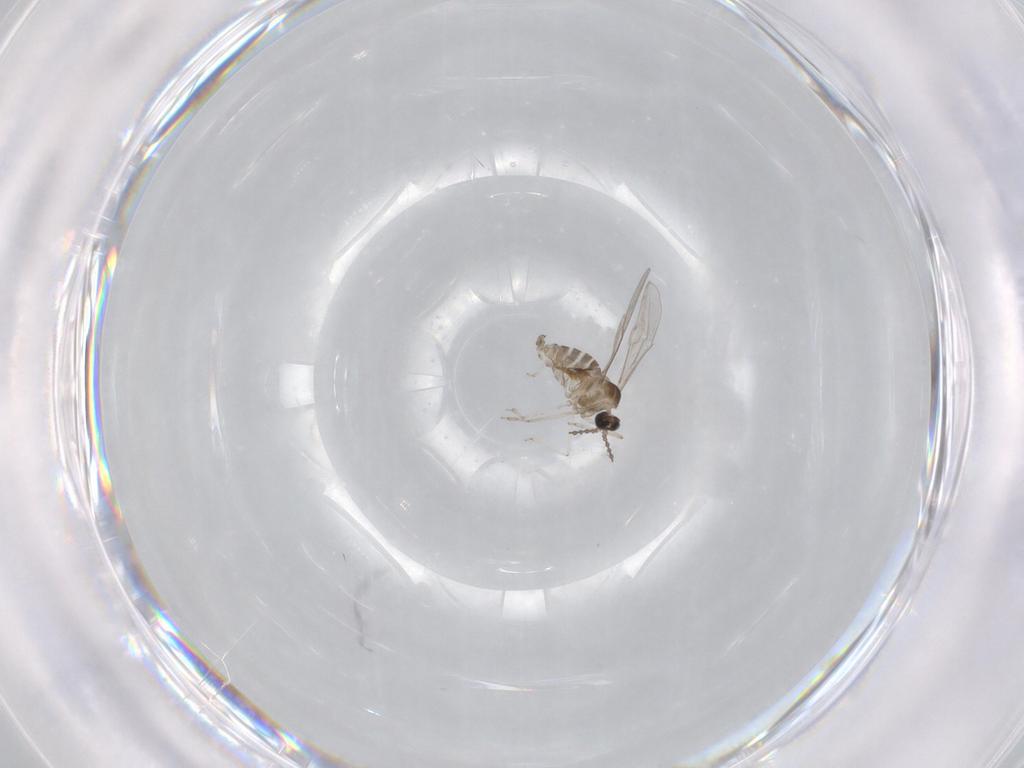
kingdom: Animalia
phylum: Arthropoda
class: Insecta
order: Diptera
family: Cecidomyiidae
